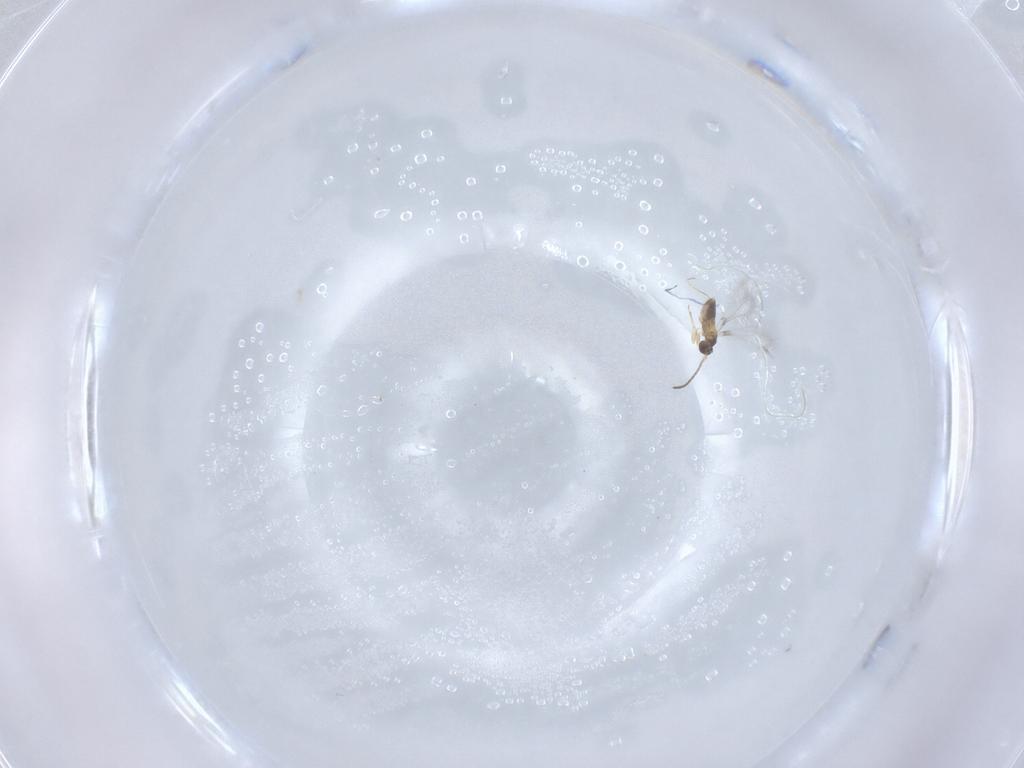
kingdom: Animalia
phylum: Arthropoda
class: Insecta
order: Hymenoptera
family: Mymaridae
